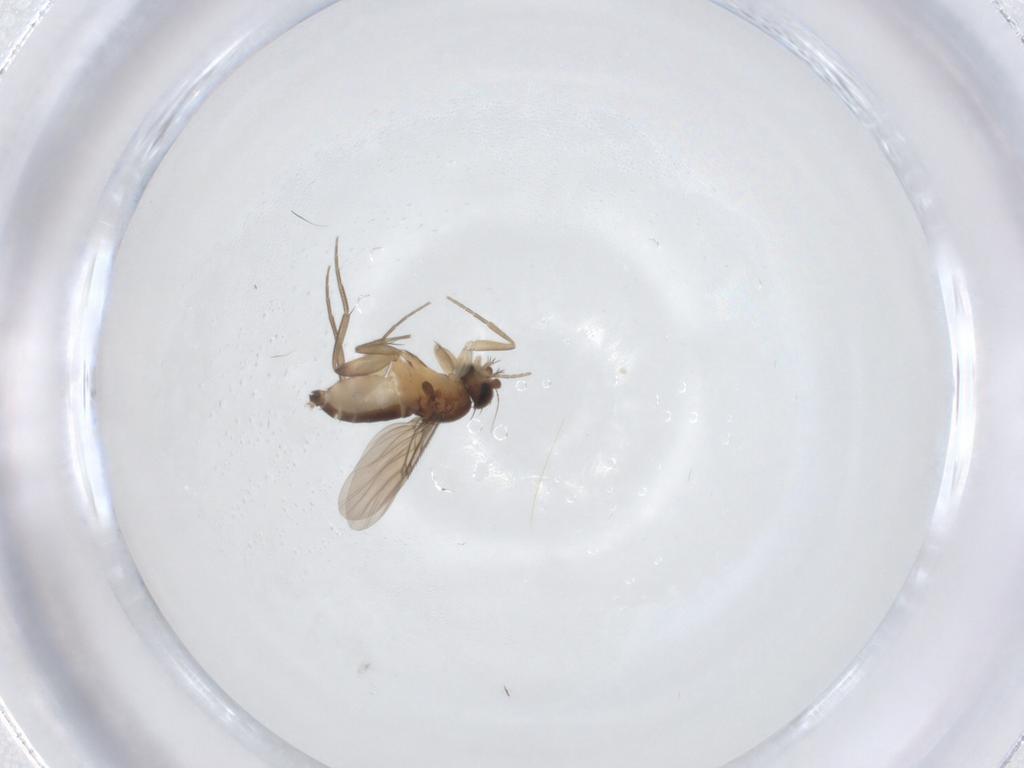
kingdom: Animalia
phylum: Arthropoda
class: Insecta
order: Diptera
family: Phoridae
